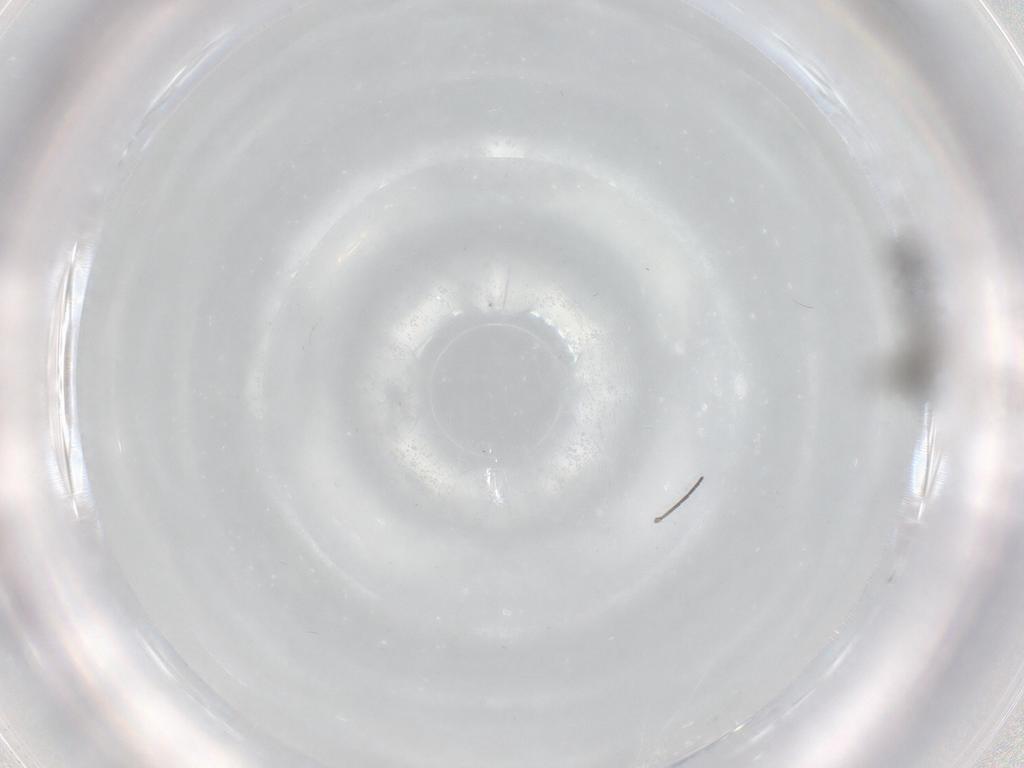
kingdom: Animalia
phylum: Arthropoda
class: Insecta
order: Diptera
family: Sciaridae
